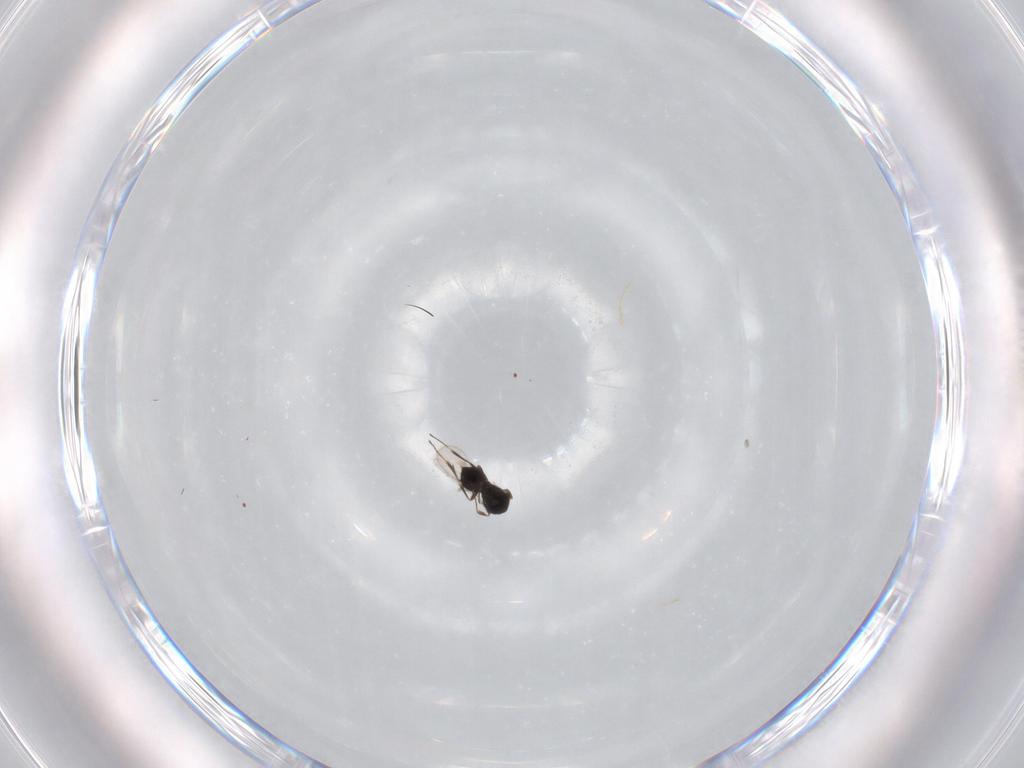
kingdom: Animalia
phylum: Arthropoda
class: Insecta
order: Hymenoptera
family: Scelionidae
